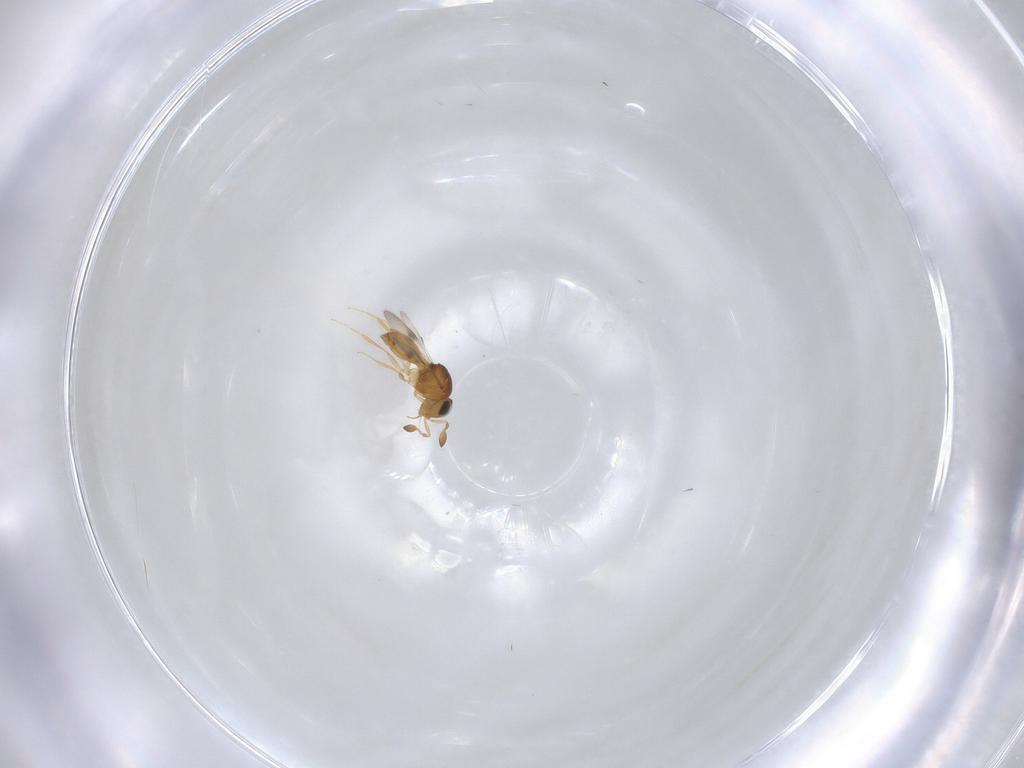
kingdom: Animalia
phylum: Arthropoda
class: Insecta
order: Hymenoptera
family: Scelionidae
